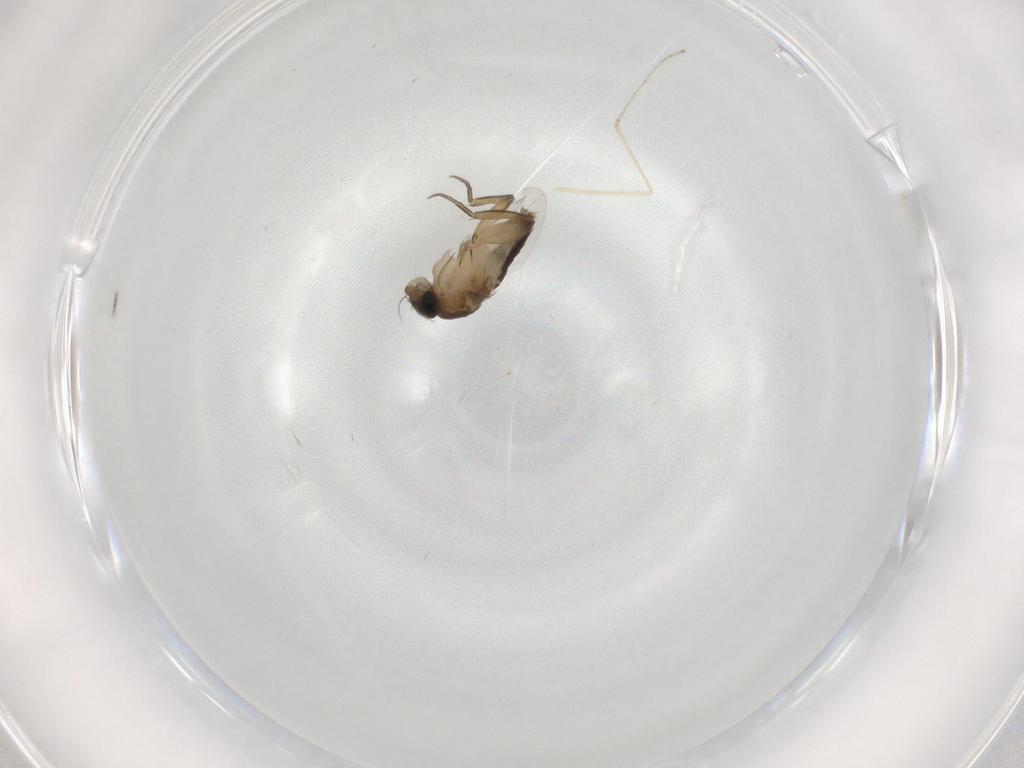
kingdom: Animalia
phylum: Arthropoda
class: Insecta
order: Diptera
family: Phoridae
